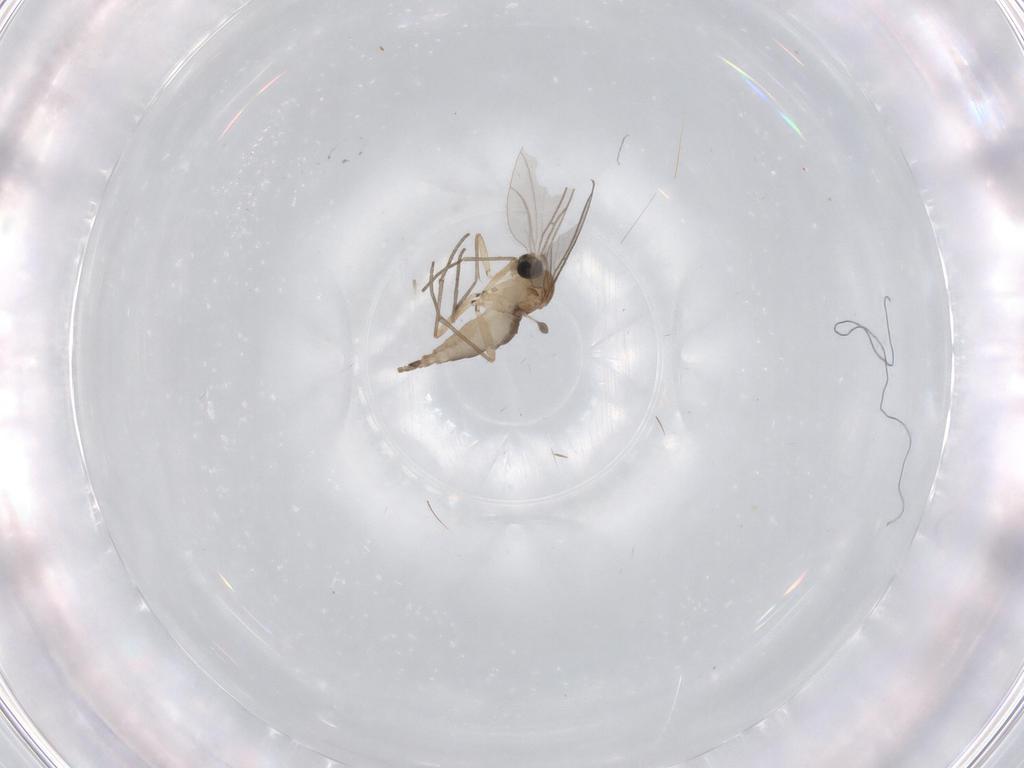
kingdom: Animalia
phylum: Arthropoda
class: Insecta
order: Diptera
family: Sciaridae
